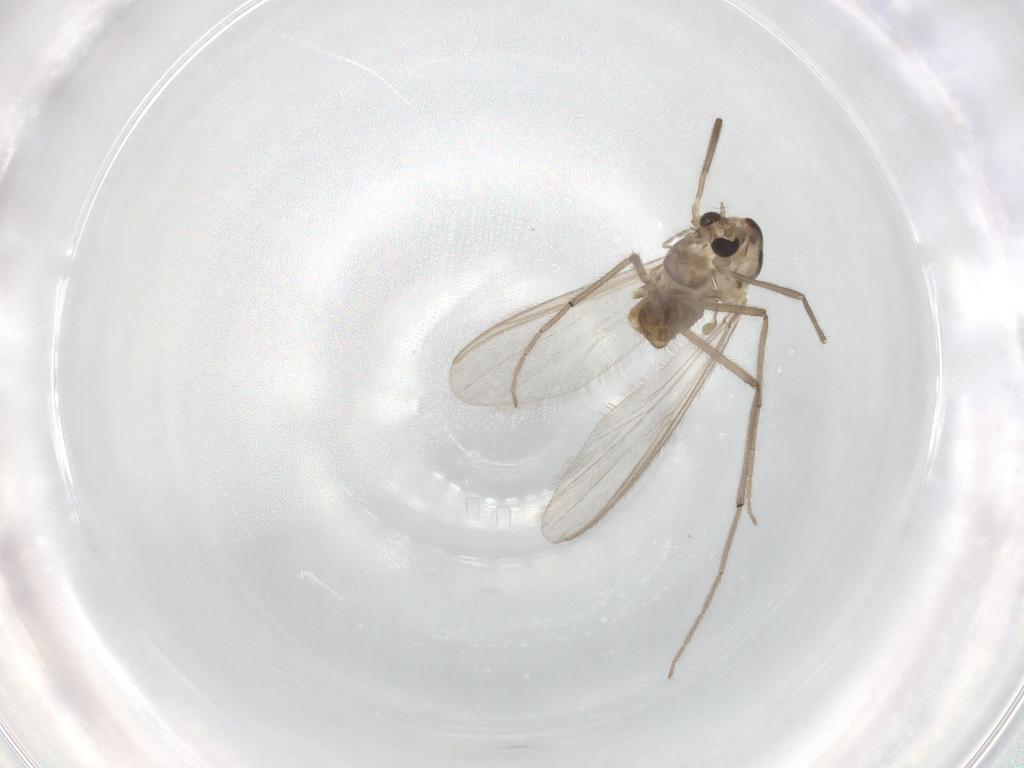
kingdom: Animalia
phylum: Arthropoda
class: Insecta
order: Diptera
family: Chironomidae
